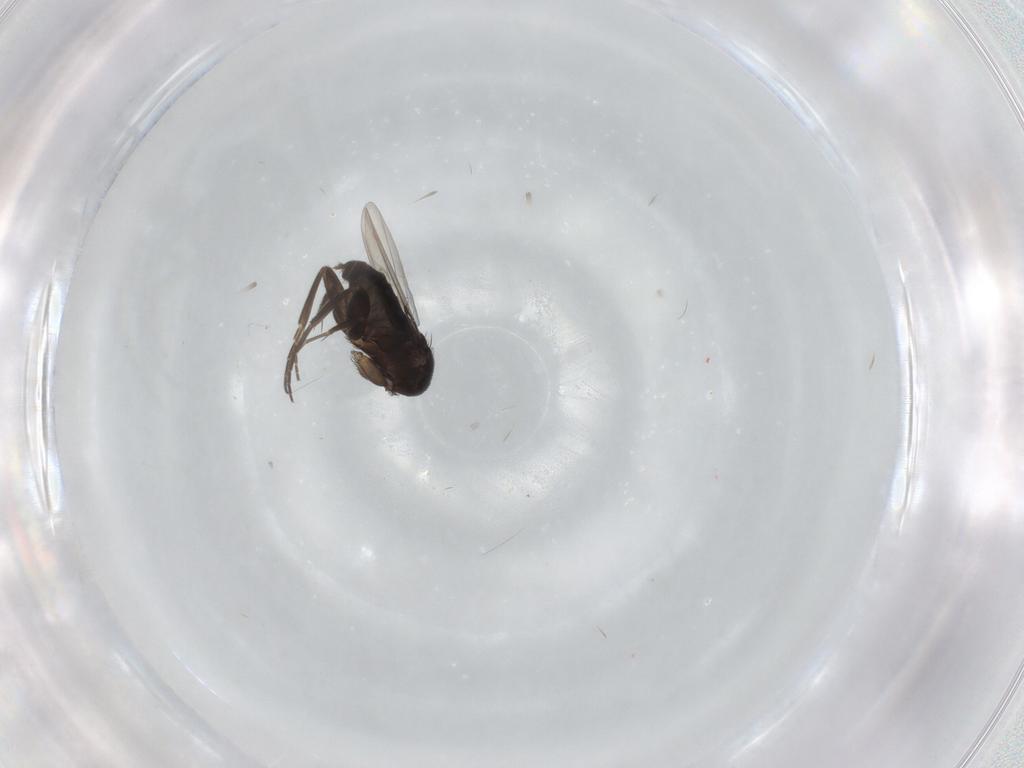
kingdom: Animalia
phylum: Arthropoda
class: Insecta
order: Diptera
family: Phoridae
